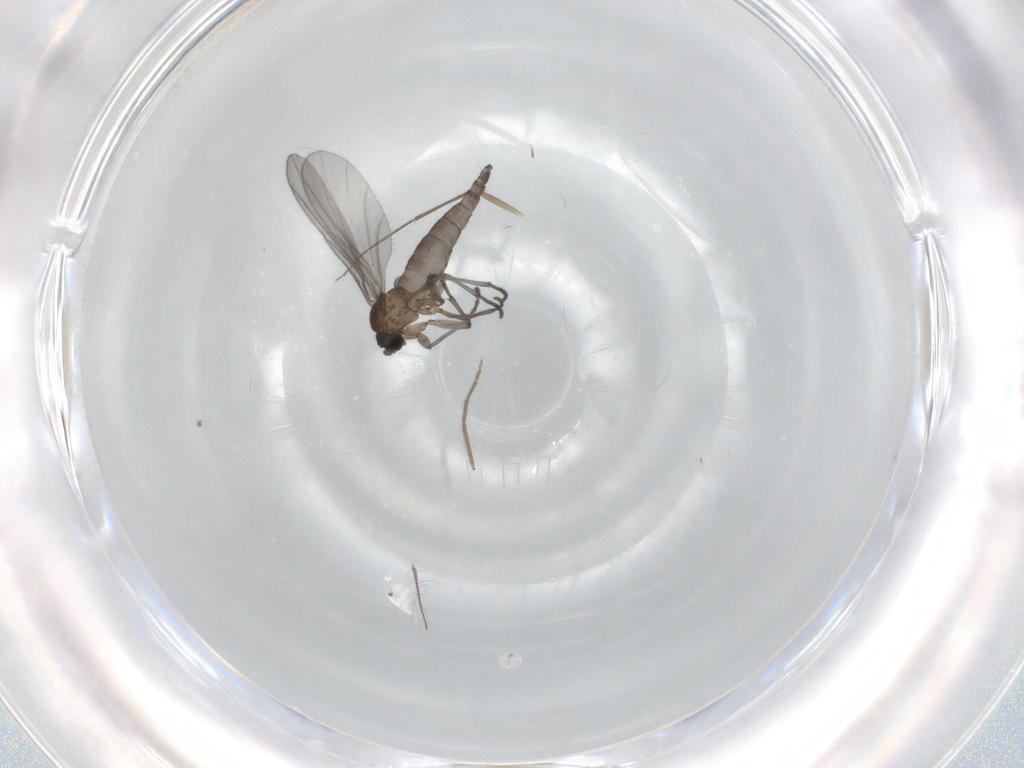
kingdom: Animalia
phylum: Arthropoda
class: Insecta
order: Diptera
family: Sciaridae
